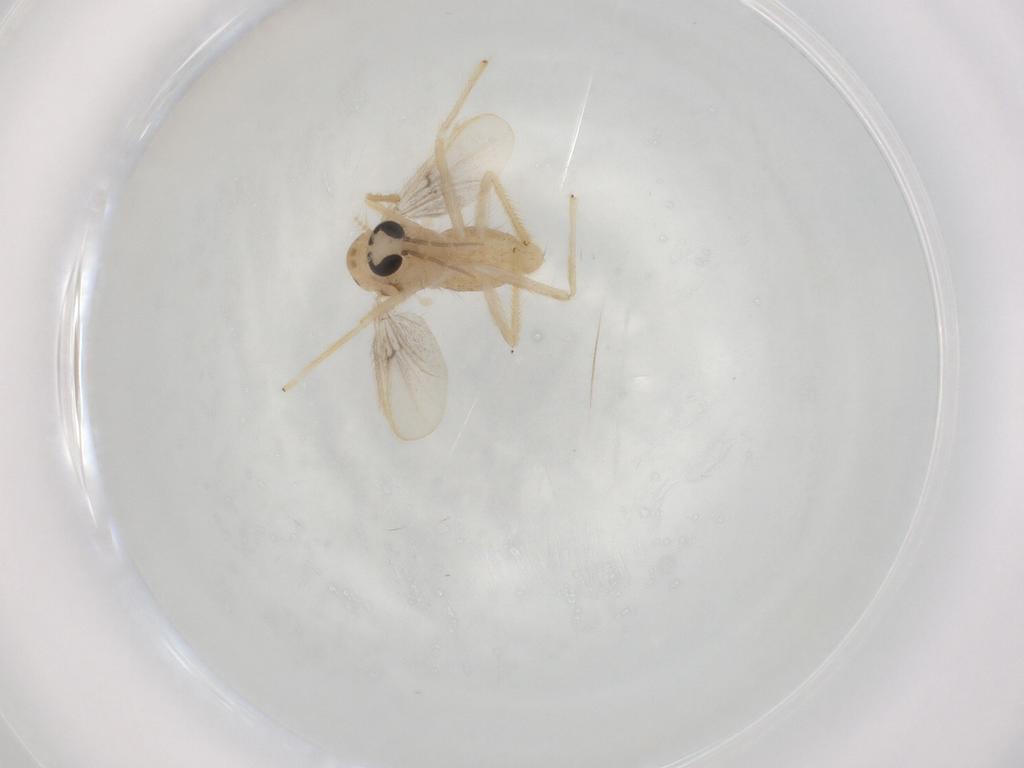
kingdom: Animalia
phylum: Arthropoda
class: Insecta
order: Diptera
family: Chironomidae
